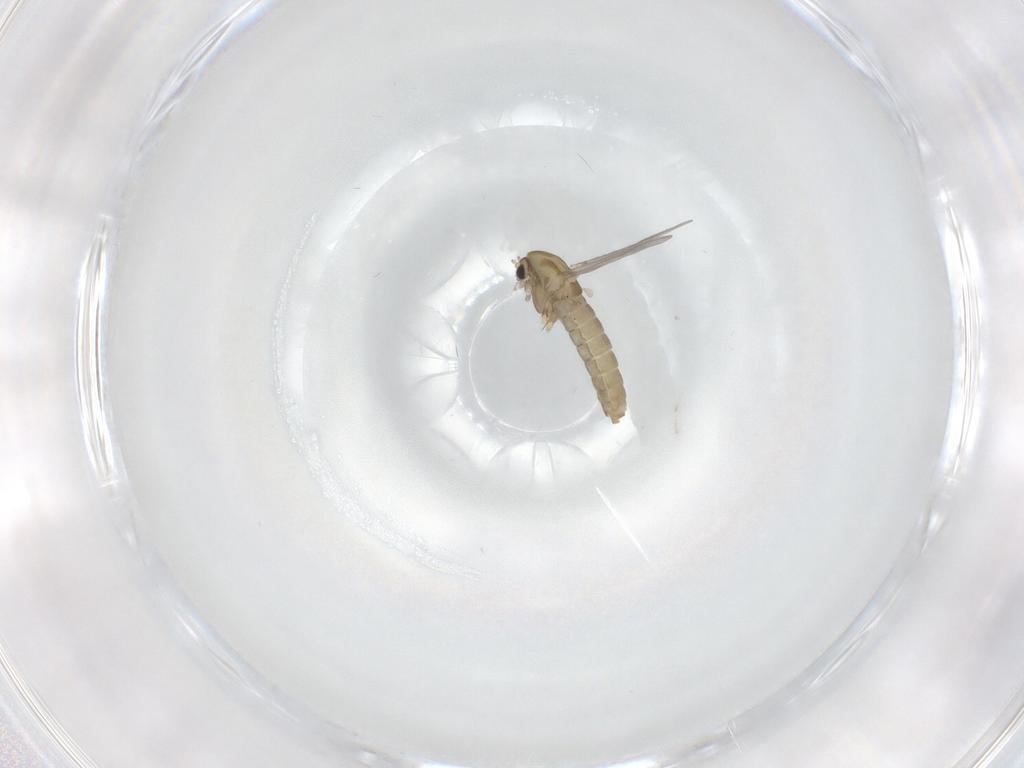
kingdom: Animalia
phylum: Arthropoda
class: Insecta
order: Diptera
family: Chironomidae
